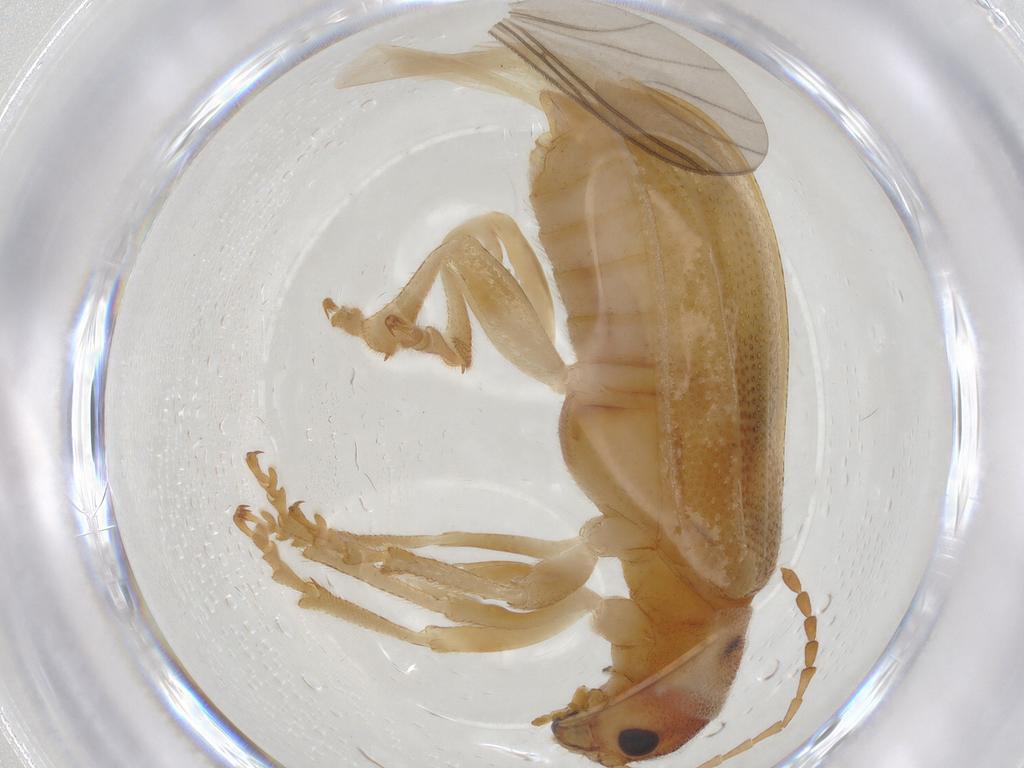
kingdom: Animalia
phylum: Arthropoda
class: Insecta
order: Coleoptera
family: Chrysomelidae
